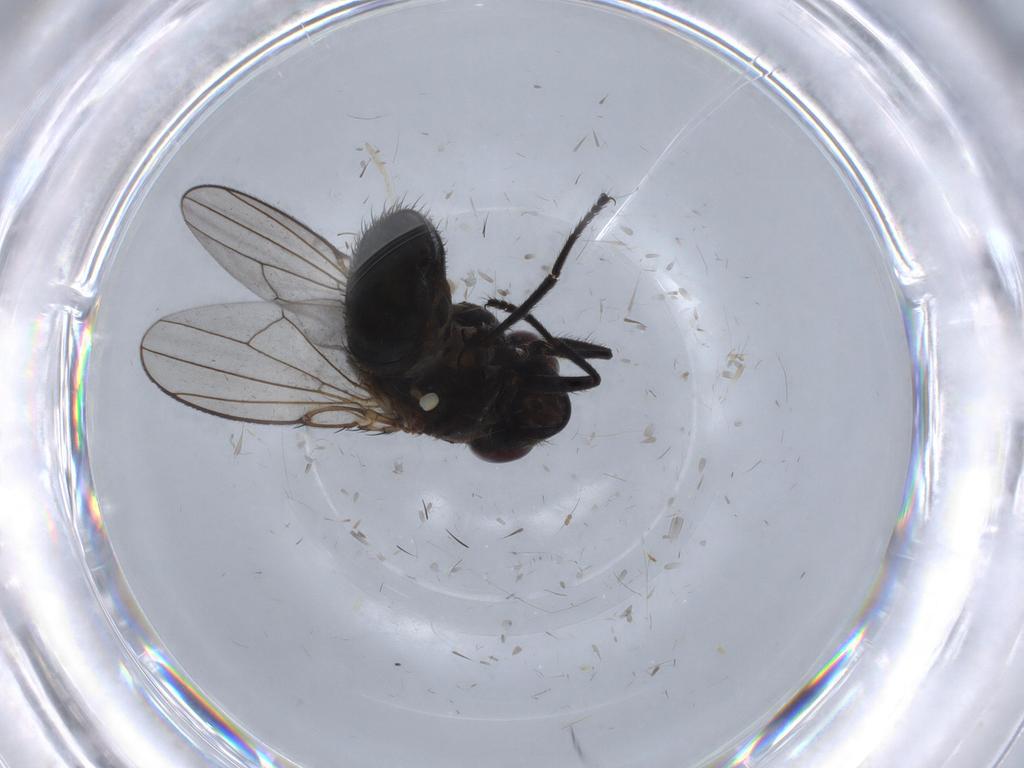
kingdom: Animalia
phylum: Arthropoda
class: Insecta
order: Diptera
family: Ephydridae
